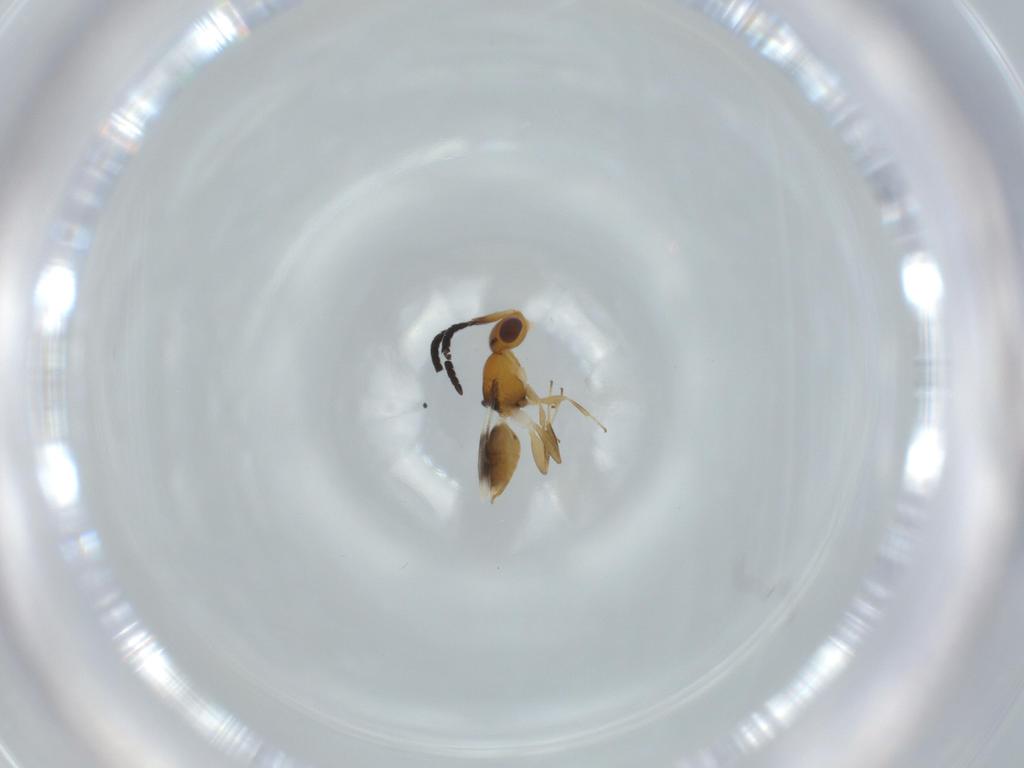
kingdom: Animalia
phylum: Arthropoda
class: Insecta
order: Hymenoptera
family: Megaspilidae
